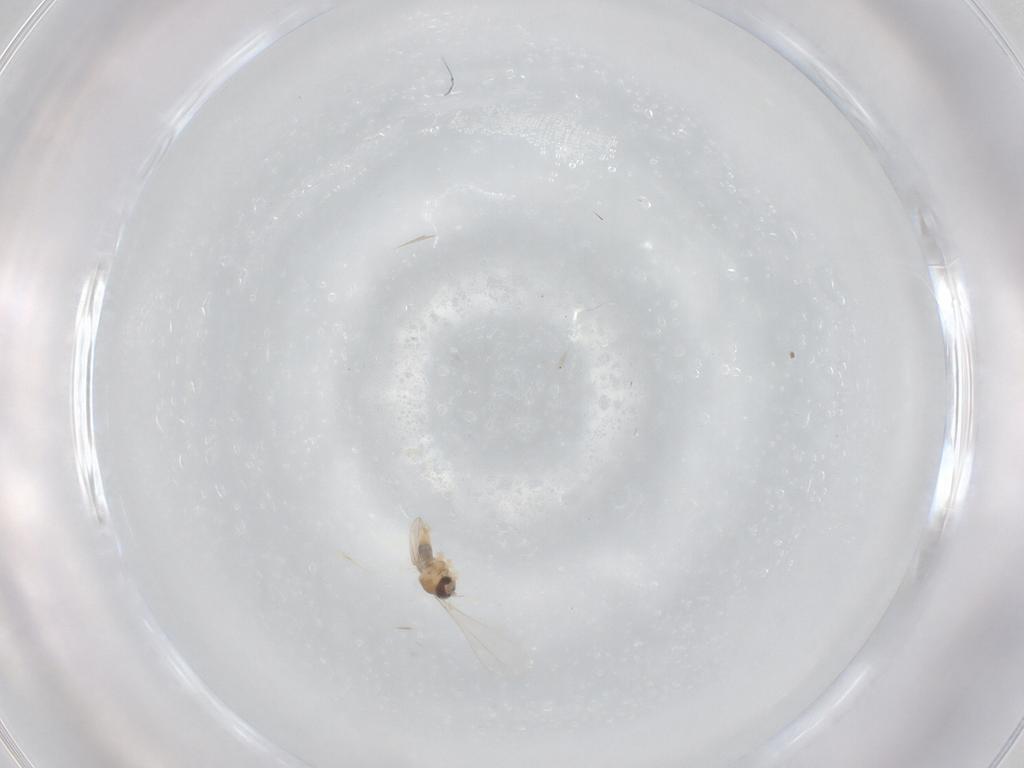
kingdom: Animalia
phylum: Arthropoda
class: Insecta
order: Diptera
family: Cecidomyiidae
